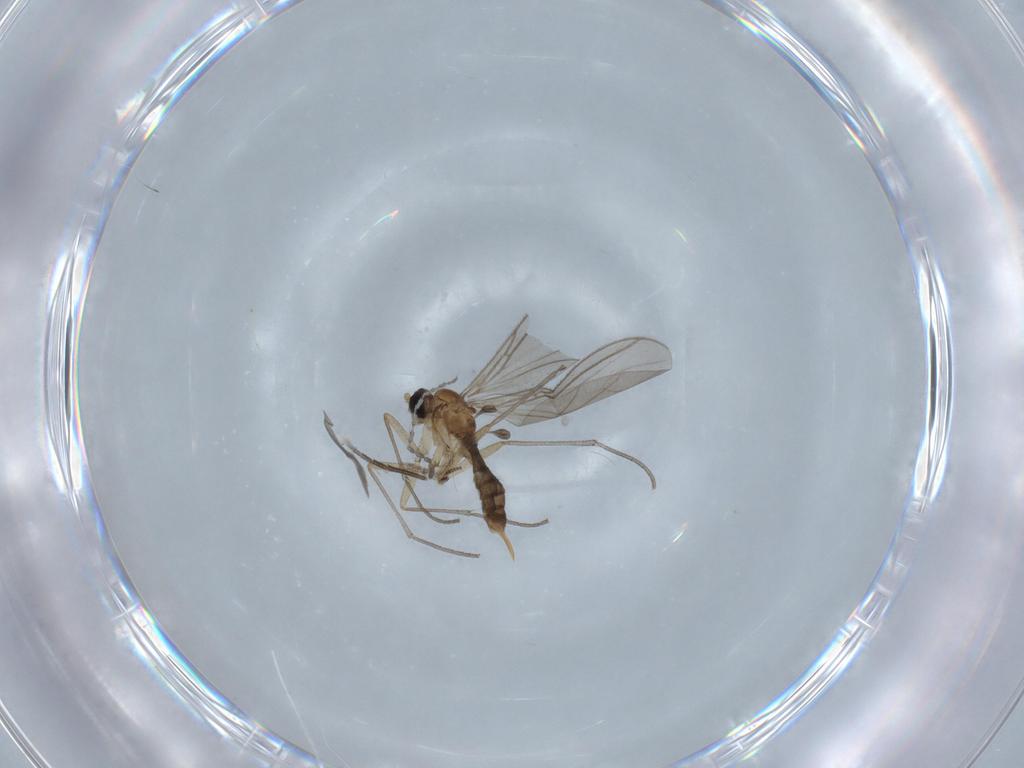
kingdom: Animalia
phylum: Arthropoda
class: Insecta
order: Diptera
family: Sciaridae
